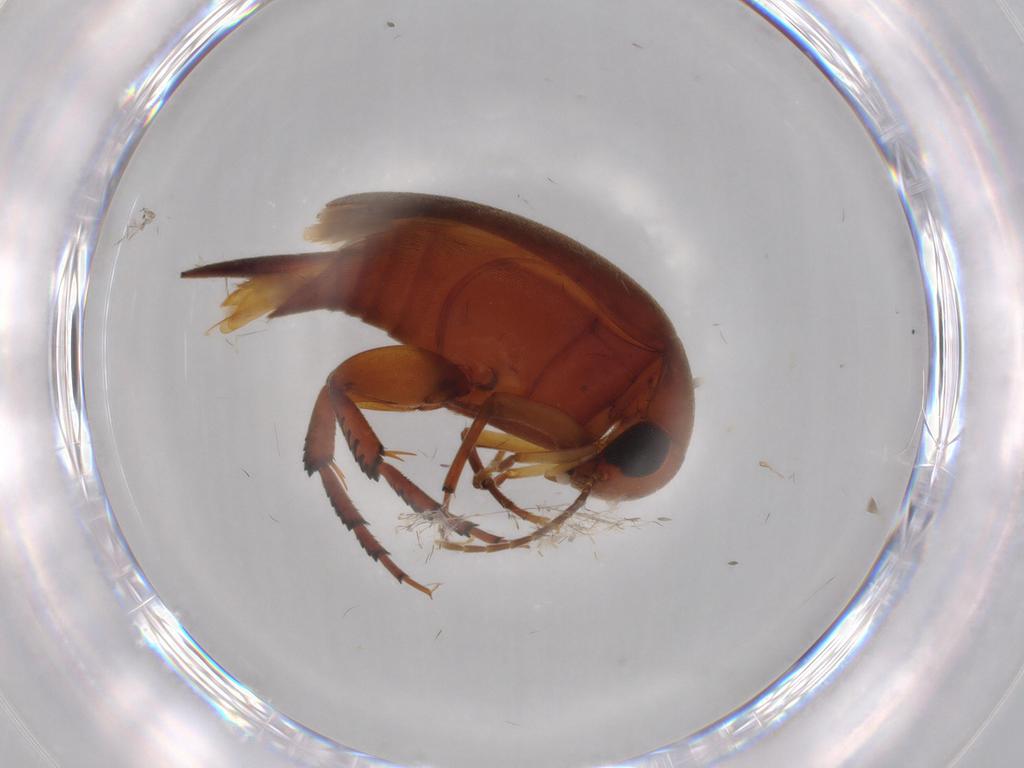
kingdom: Animalia
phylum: Arthropoda
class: Insecta
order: Coleoptera
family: Mordellidae
